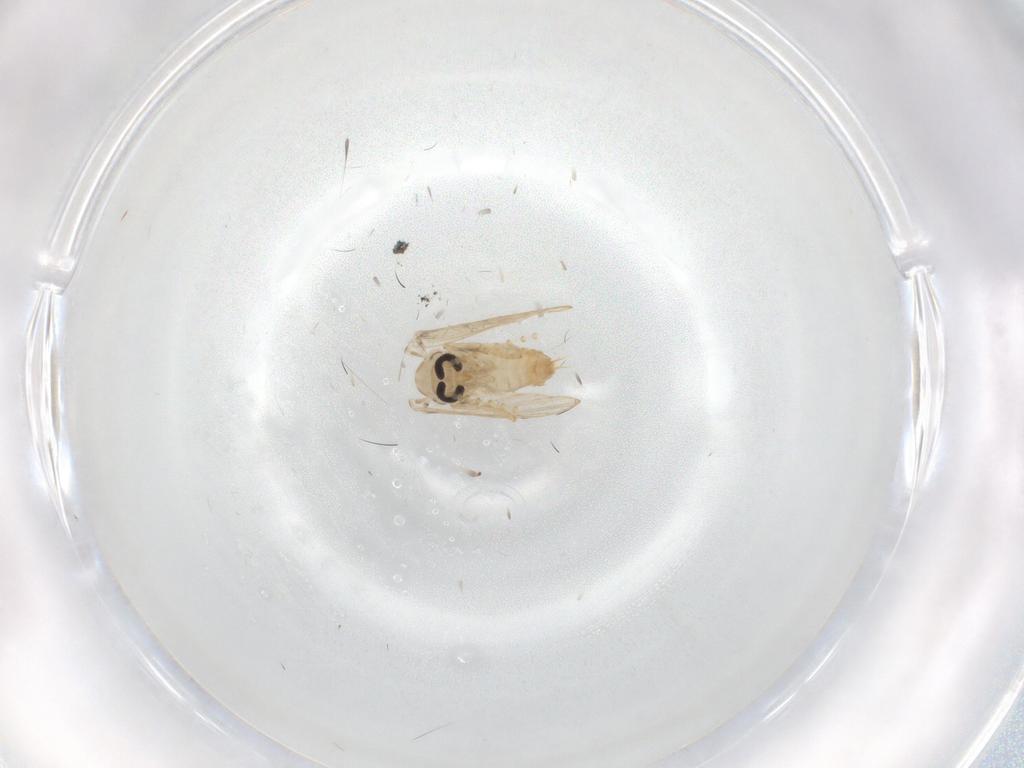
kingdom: Animalia
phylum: Arthropoda
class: Insecta
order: Diptera
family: Psychodidae
